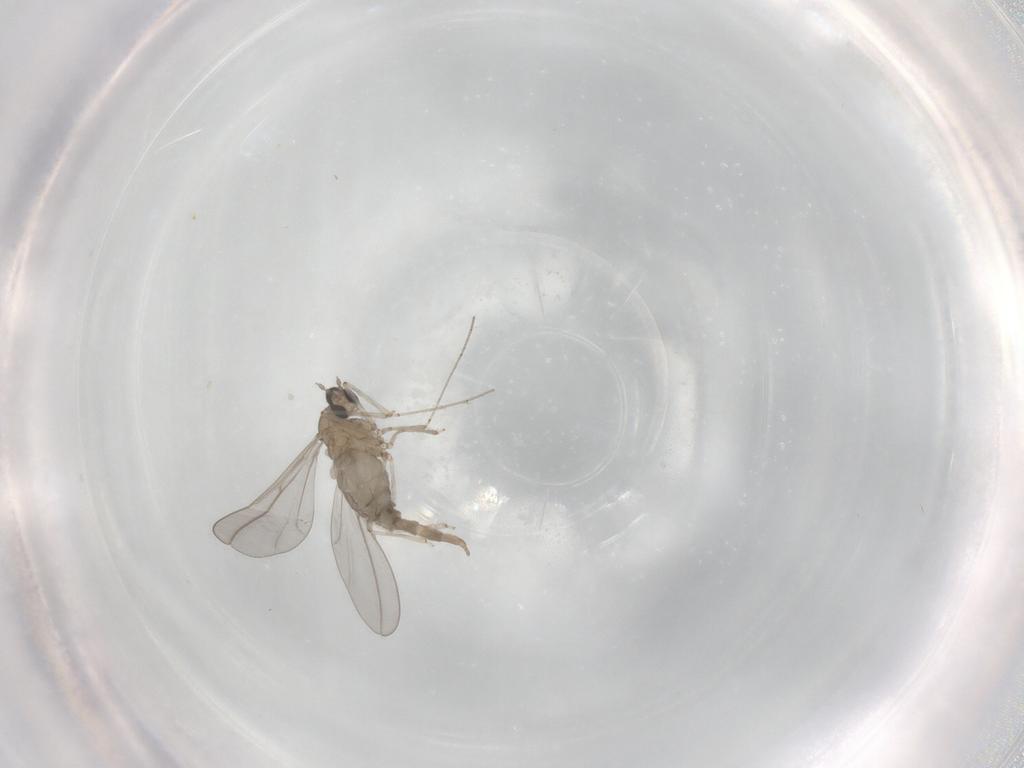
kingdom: Animalia
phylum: Arthropoda
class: Insecta
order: Diptera
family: Cecidomyiidae
